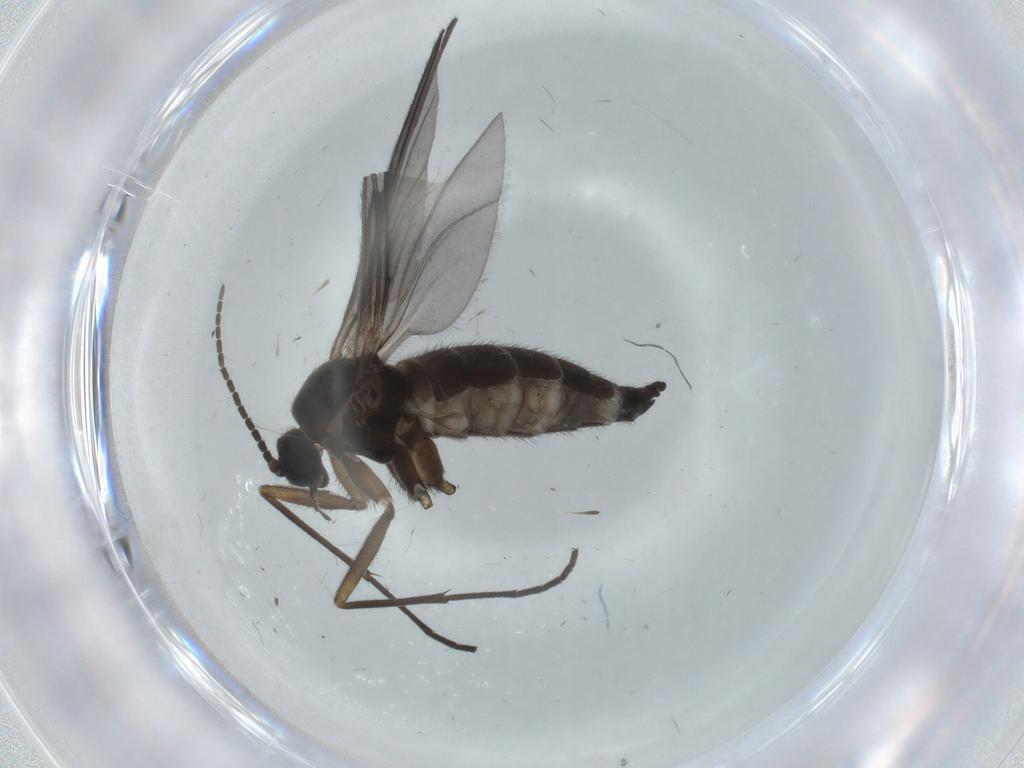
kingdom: Animalia
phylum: Arthropoda
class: Insecta
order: Diptera
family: Sciaridae
